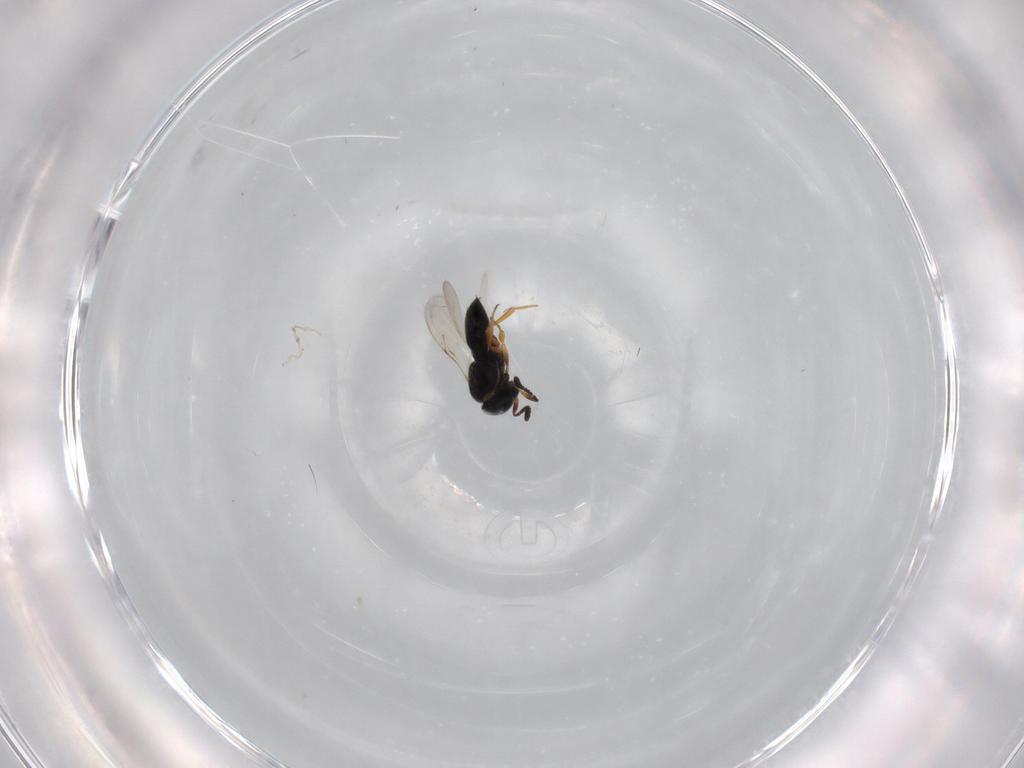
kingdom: Animalia
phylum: Arthropoda
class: Insecta
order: Hymenoptera
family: Scelionidae
